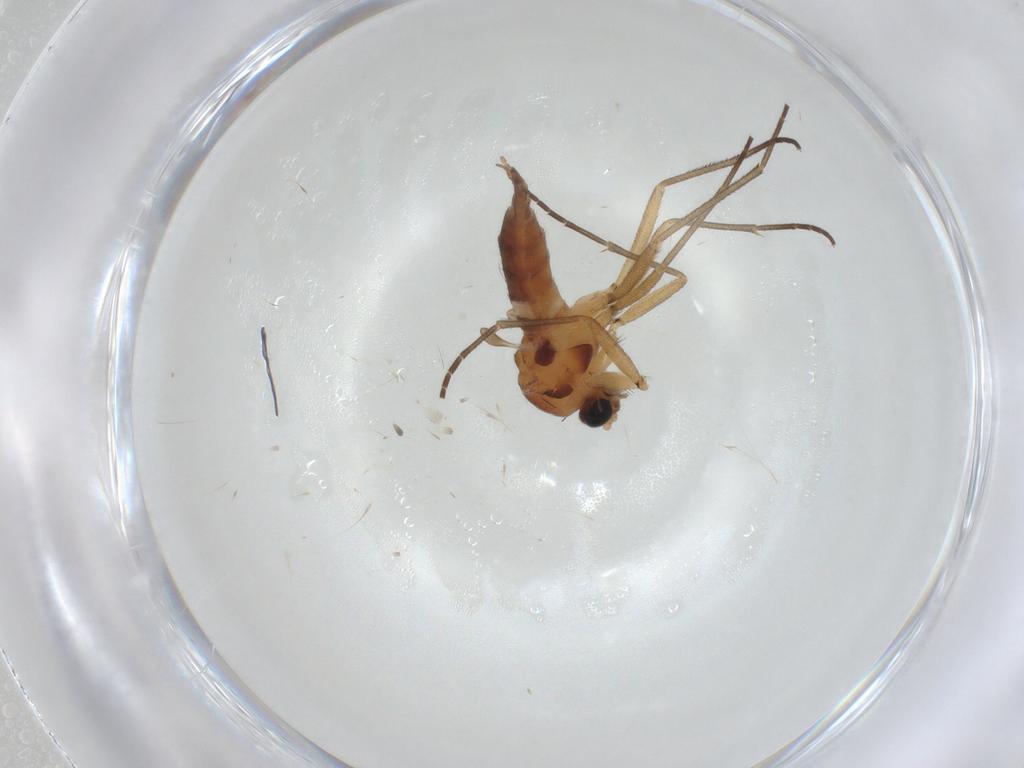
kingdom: Animalia
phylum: Arthropoda
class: Insecta
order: Diptera
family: Sciaridae
